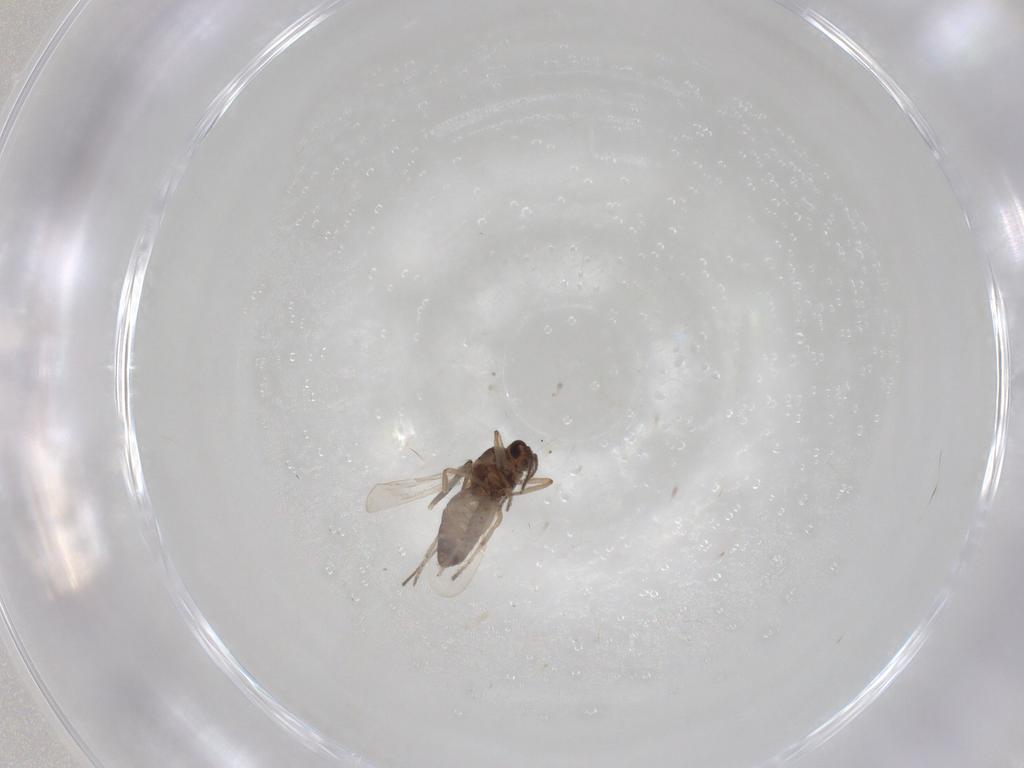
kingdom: Animalia
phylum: Arthropoda
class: Insecta
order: Diptera
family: Ceratopogonidae
